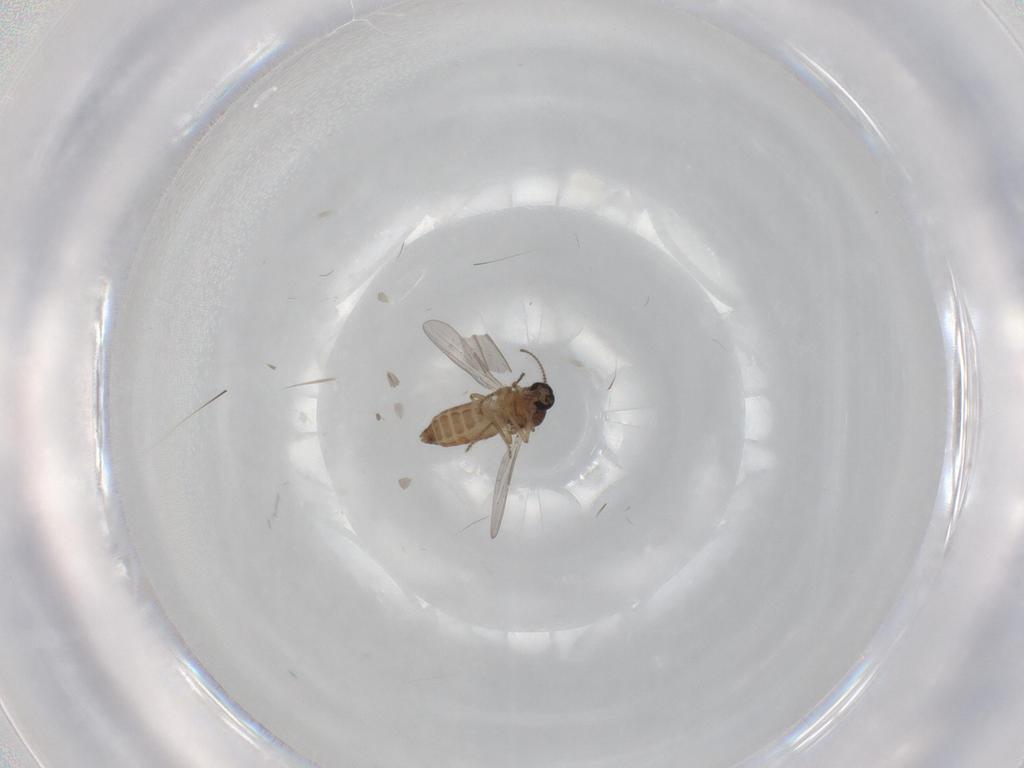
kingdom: Animalia
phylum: Arthropoda
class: Insecta
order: Diptera
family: Ceratopogonidae
